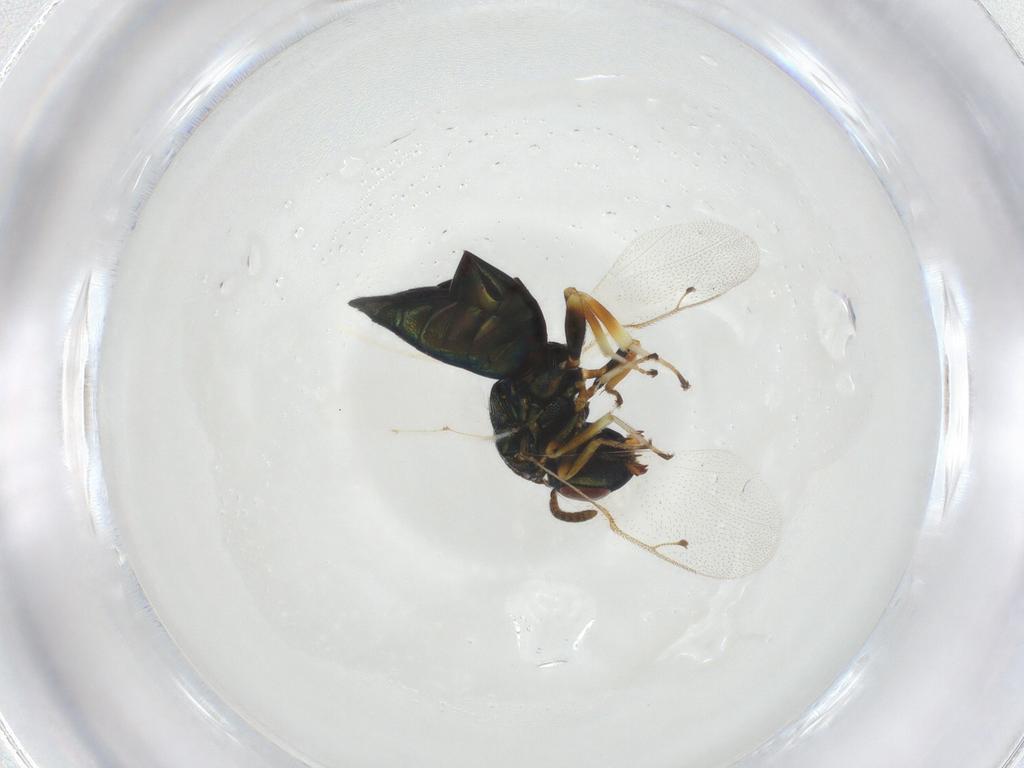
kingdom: Animalia
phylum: Arthropoda
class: Insecta
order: Hymenoptera
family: Pteromalidae
